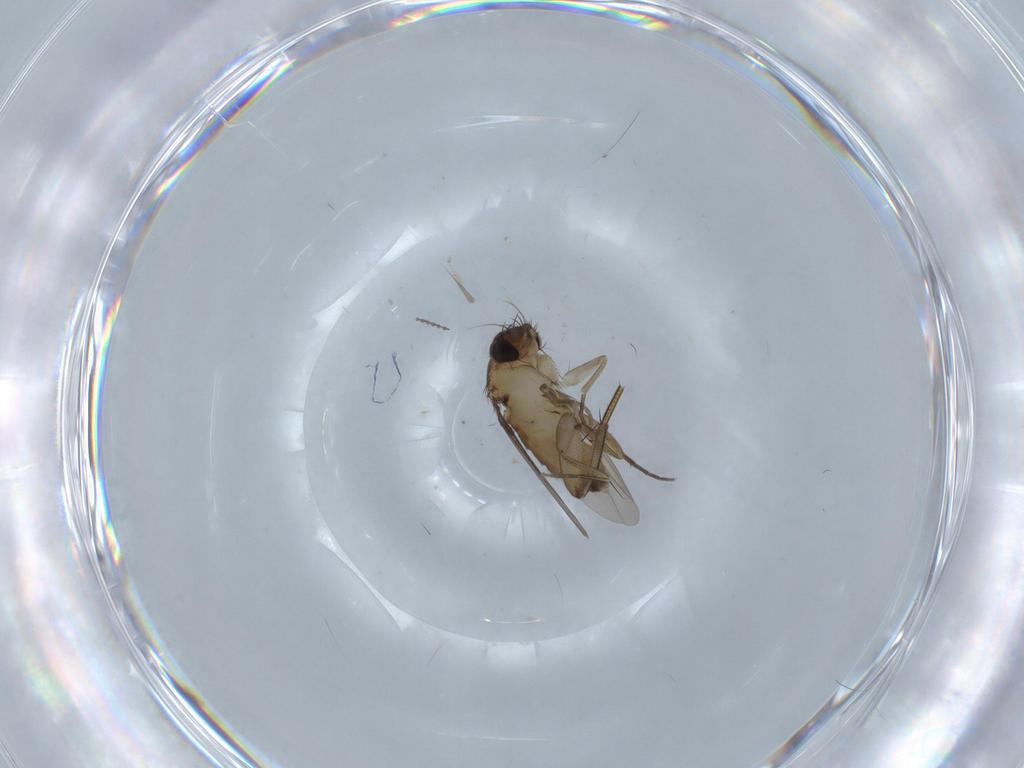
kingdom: Animalia
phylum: Arthropoda
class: Insecta
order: Diptera
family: Phoridae
